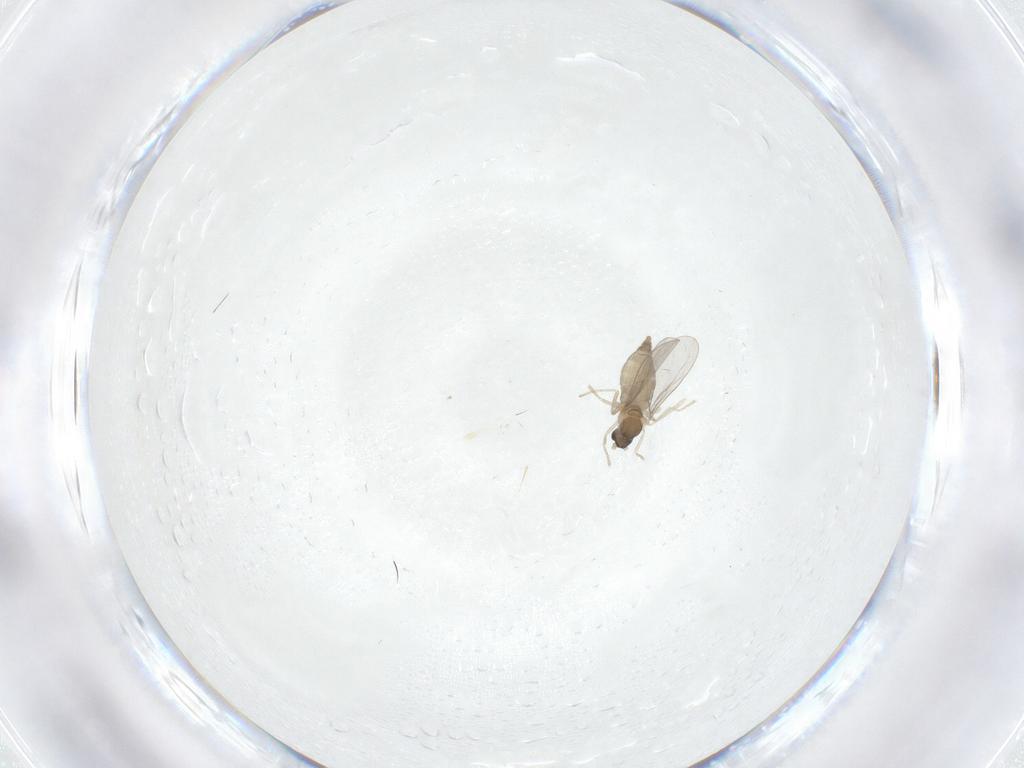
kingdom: Animalia
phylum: Arthropoda
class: Insecta
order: Diptera
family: Cecidomyiidae
